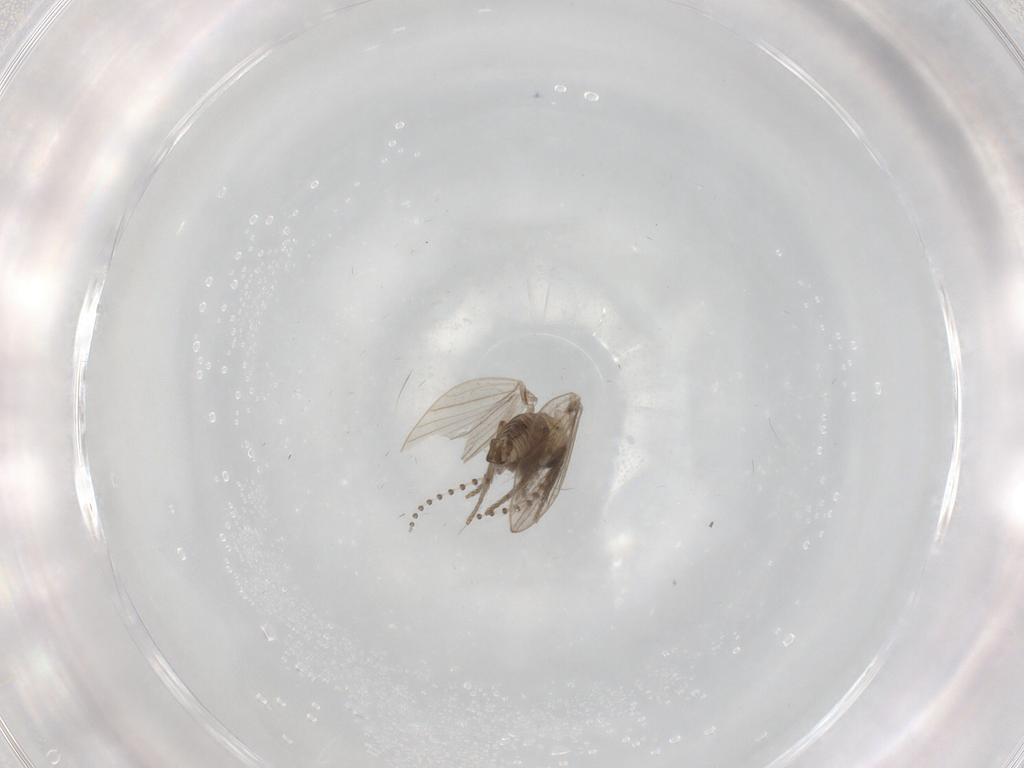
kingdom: Animalia
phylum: Arthropoda
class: Insecta
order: Diptera
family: Psychodidae
